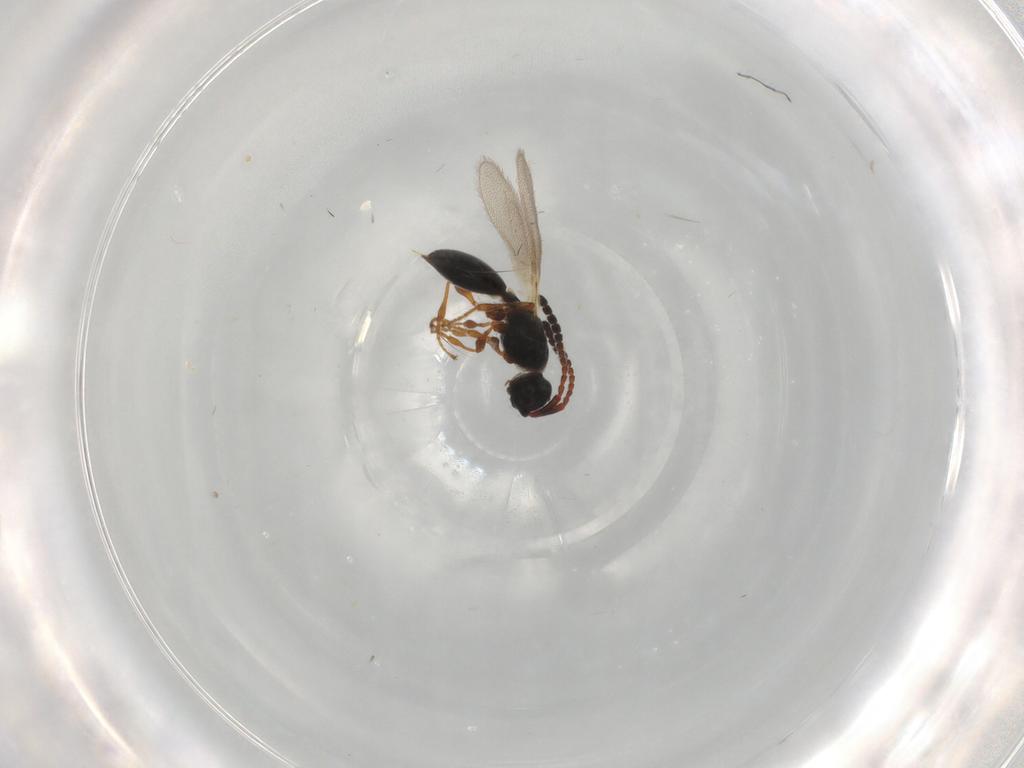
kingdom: Animalia
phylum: Arthropoda
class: Insecta
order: Hymenoptera
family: Diapriidae
